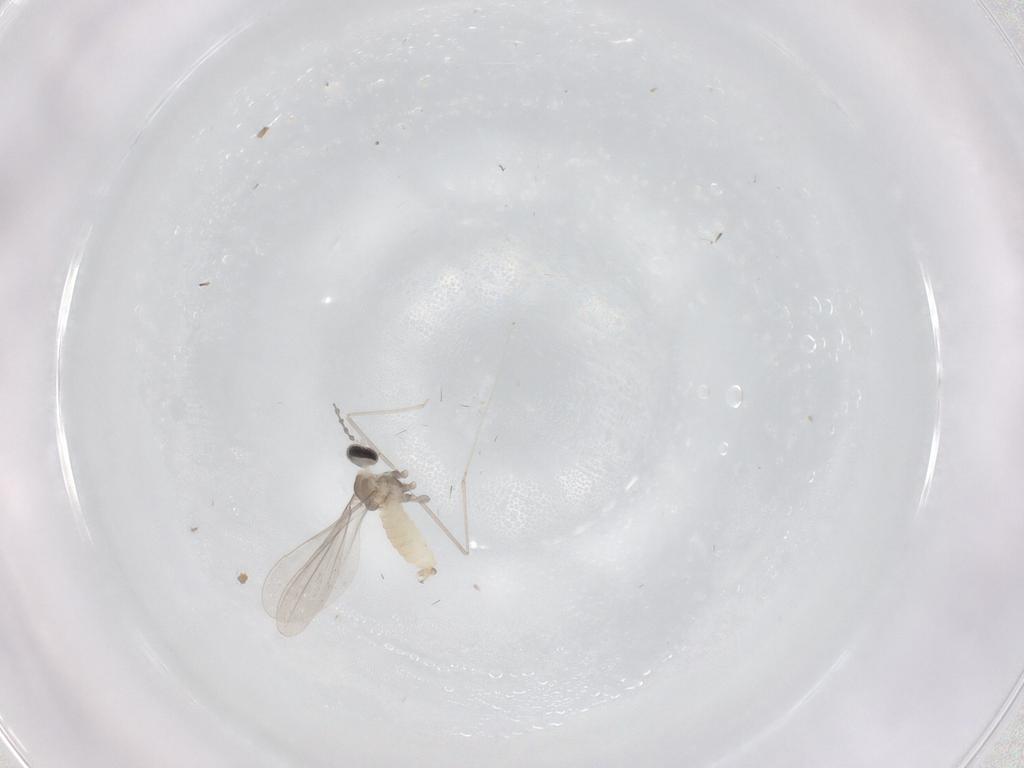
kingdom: Animalia
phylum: Arthropoda
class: Insecta
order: Diptera
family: Cecidomyiidae
